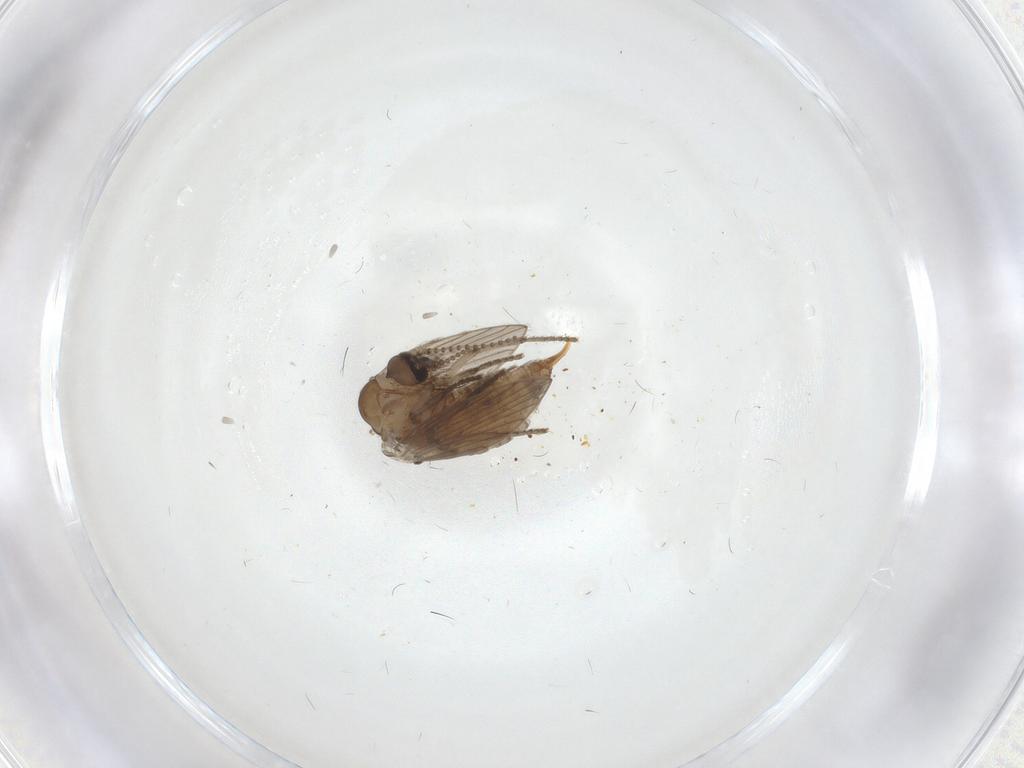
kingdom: Animalia
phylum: Arthropoda
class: Insecta
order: Diptera
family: Psychodidae
